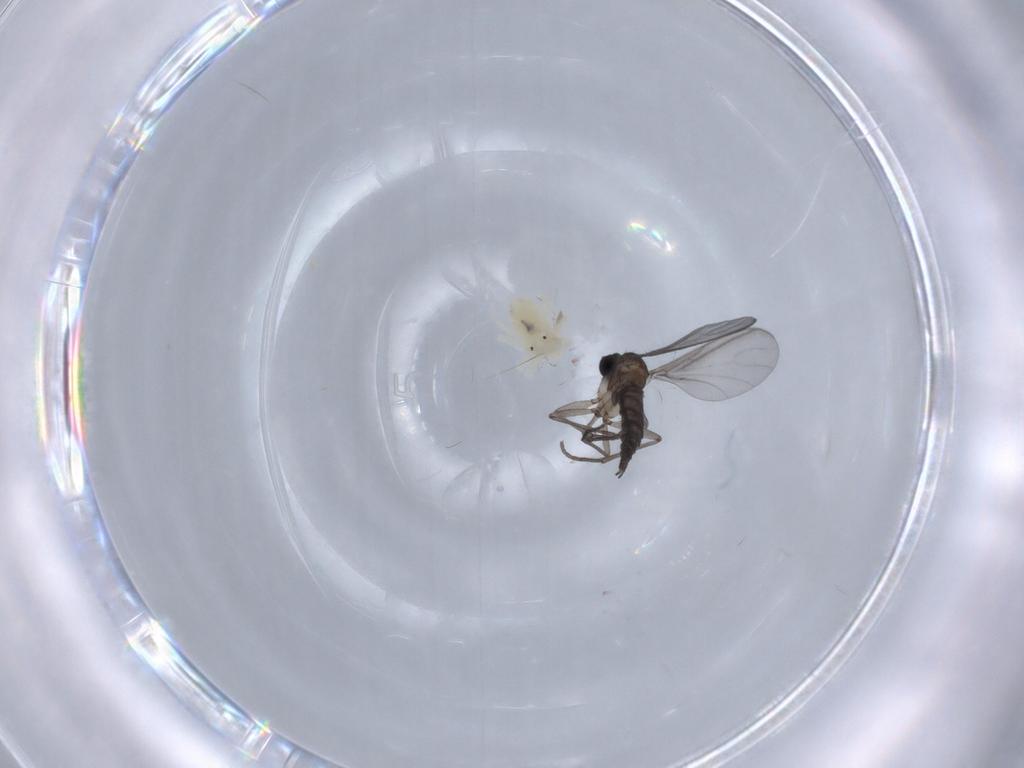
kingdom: Animalia
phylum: Arthropoda
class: Insecta
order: Diptera
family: Sciaridae
